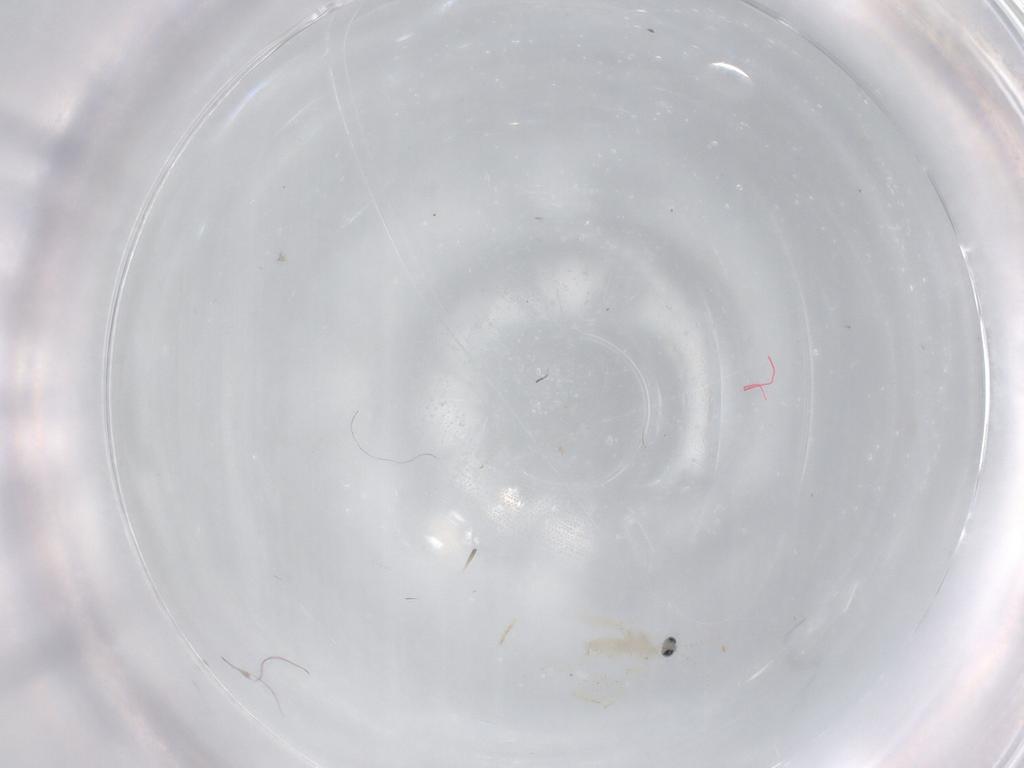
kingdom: Animalia
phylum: Arthropoda
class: Insecta
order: Diptera
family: Cecidomyiidae
